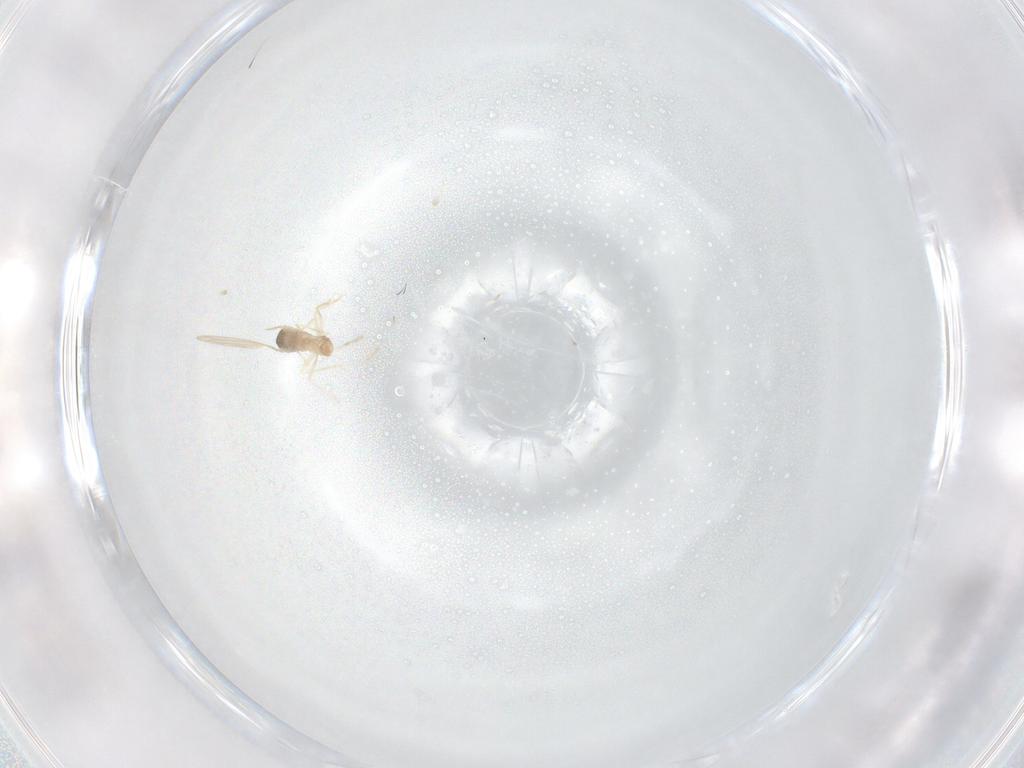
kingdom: Animalia
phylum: Arthropoda
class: Insecta
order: Diptera
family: Cecidomyiidae
